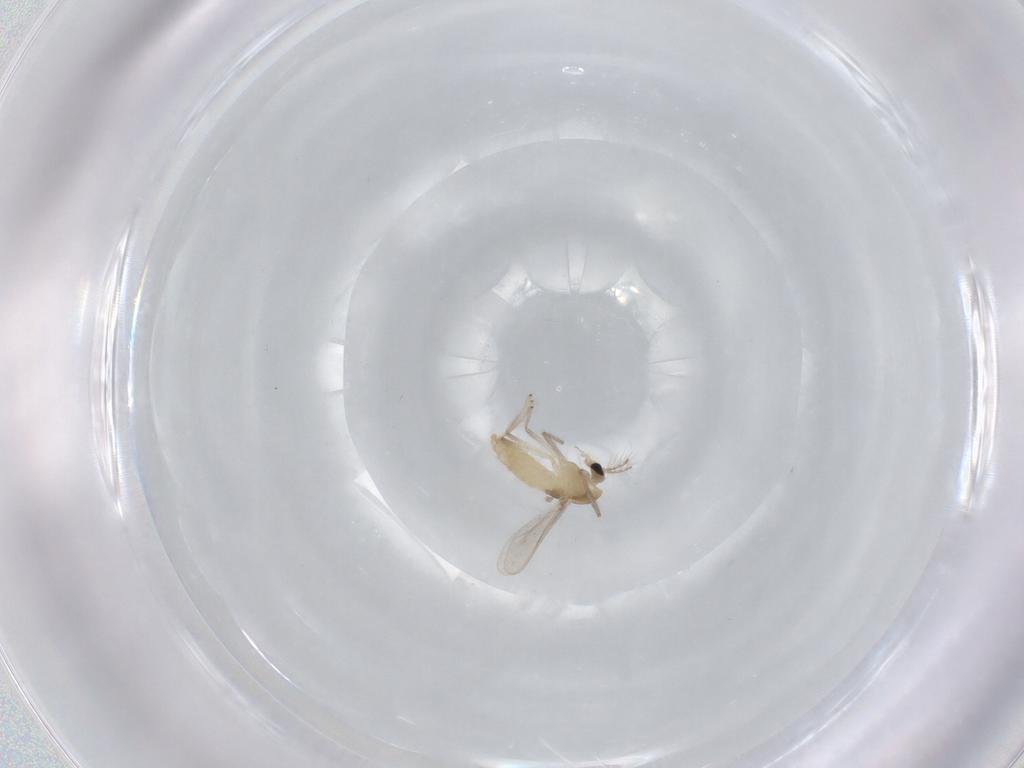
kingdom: Animalia
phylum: Arthropoda
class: Insecta
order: Diptera
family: Chironomidae
